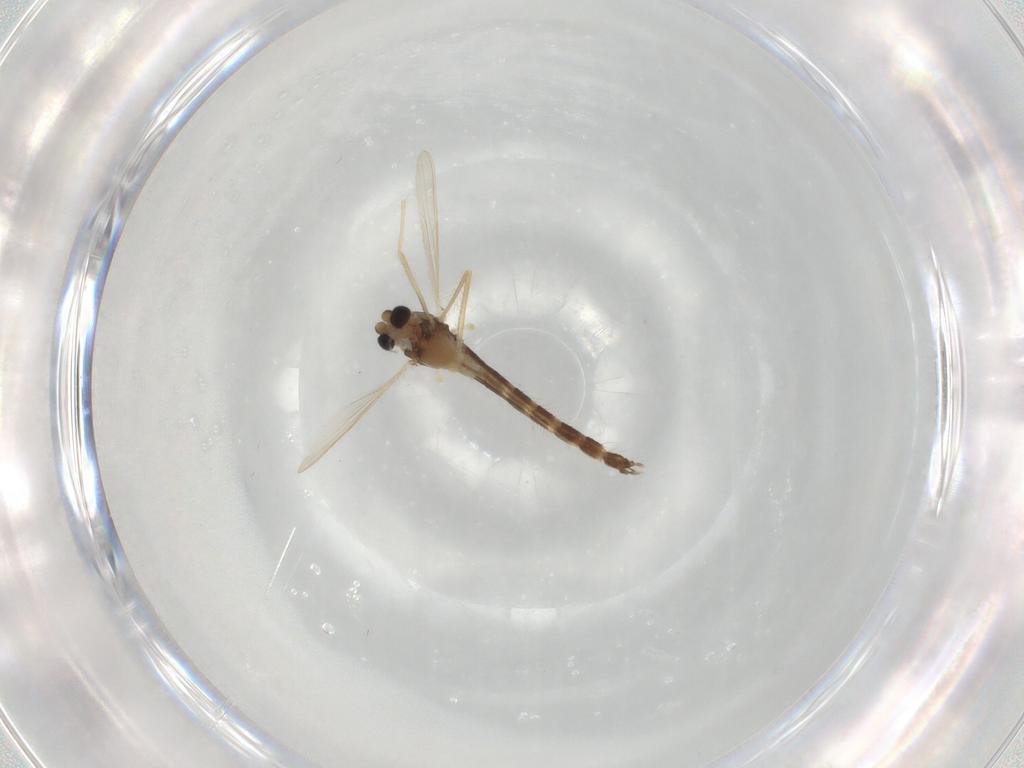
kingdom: Animalia
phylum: Arthropoda
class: Insecta
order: Diptera
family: Chironomidae
